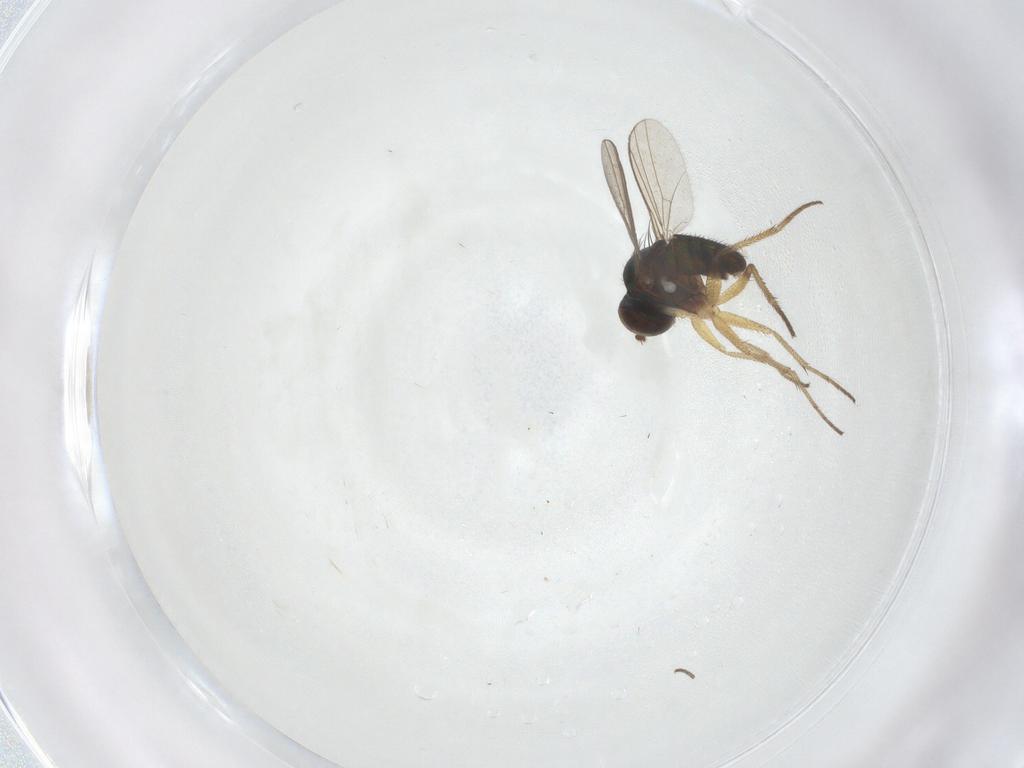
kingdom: Animalia
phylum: Arthropoda
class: Insecta
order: Diptera
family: Dolichopodidae
